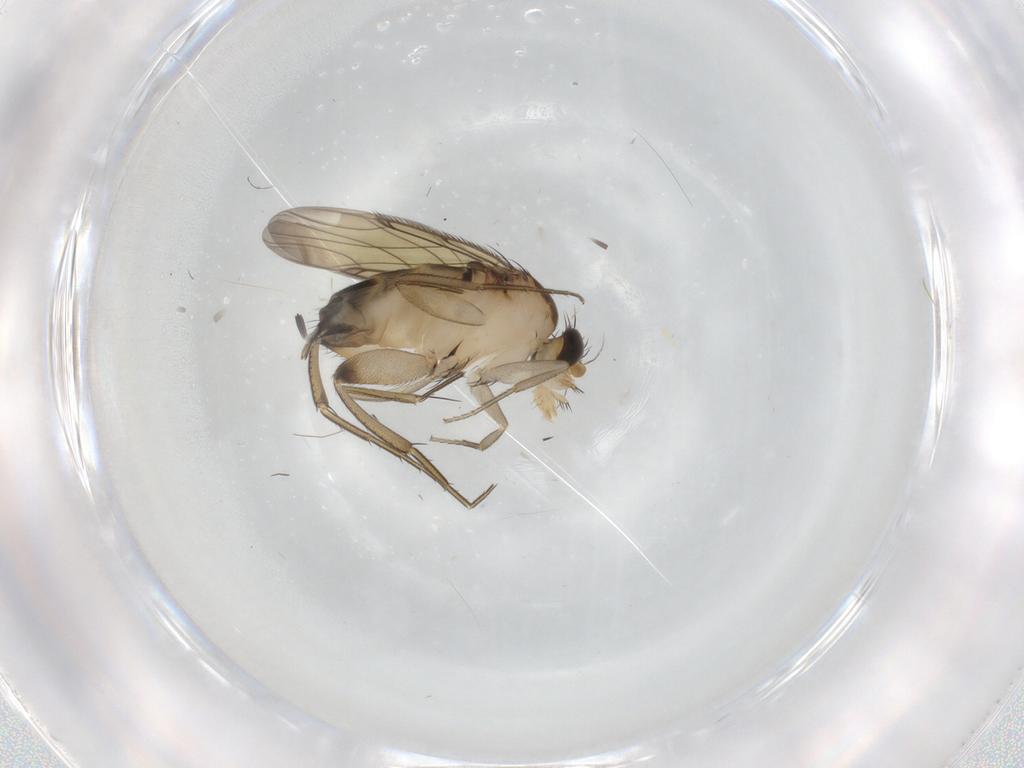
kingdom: Animalia
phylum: Arthropoda
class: Insecta
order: Diptera
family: Phoridae
